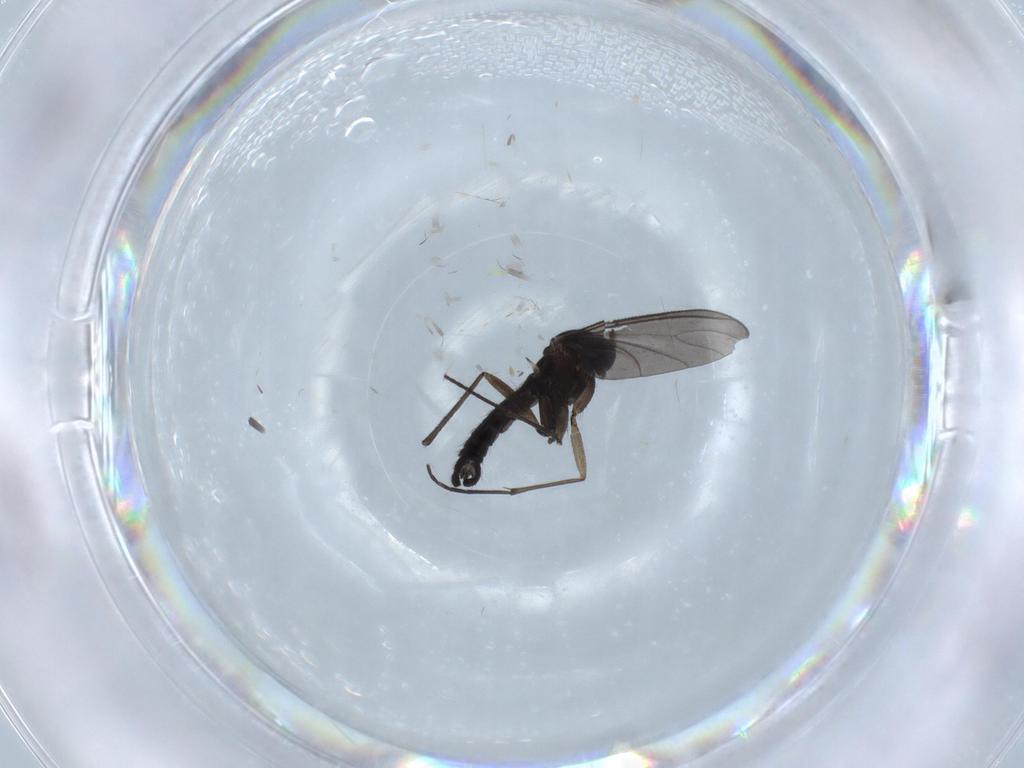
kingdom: Animalia
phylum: Arthropoda
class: Insecta
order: Diptera
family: Sciaridae
